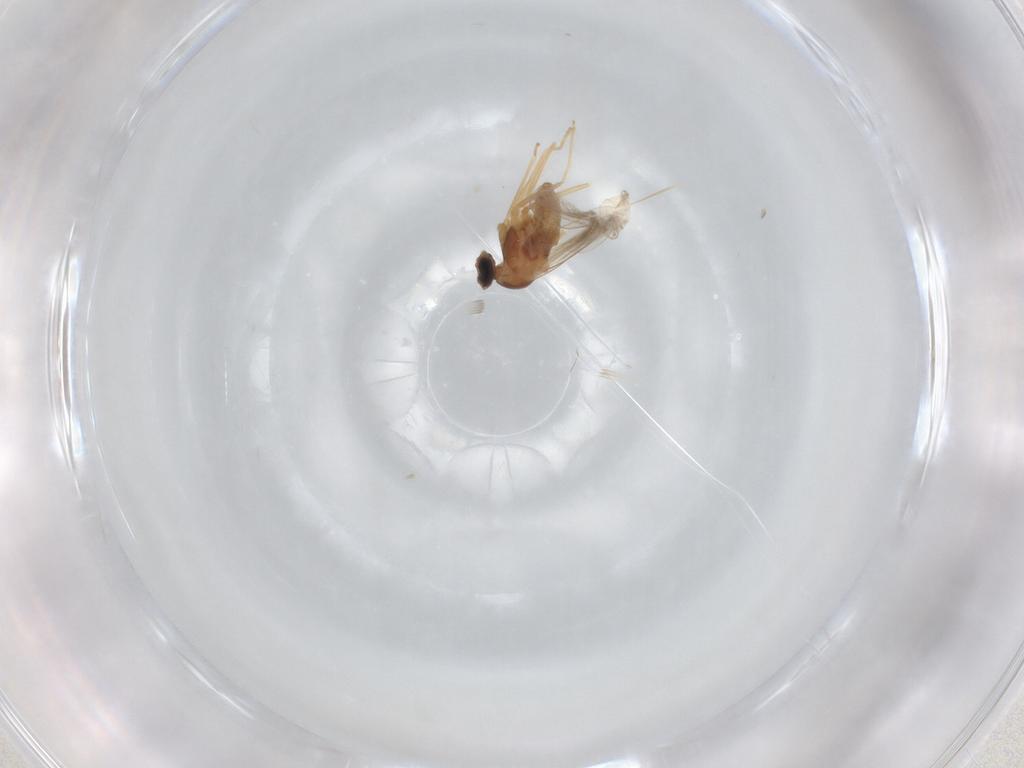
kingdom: Animalia
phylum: Arthropoda
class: Insecta
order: Diptera
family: Cecidomyiidae
